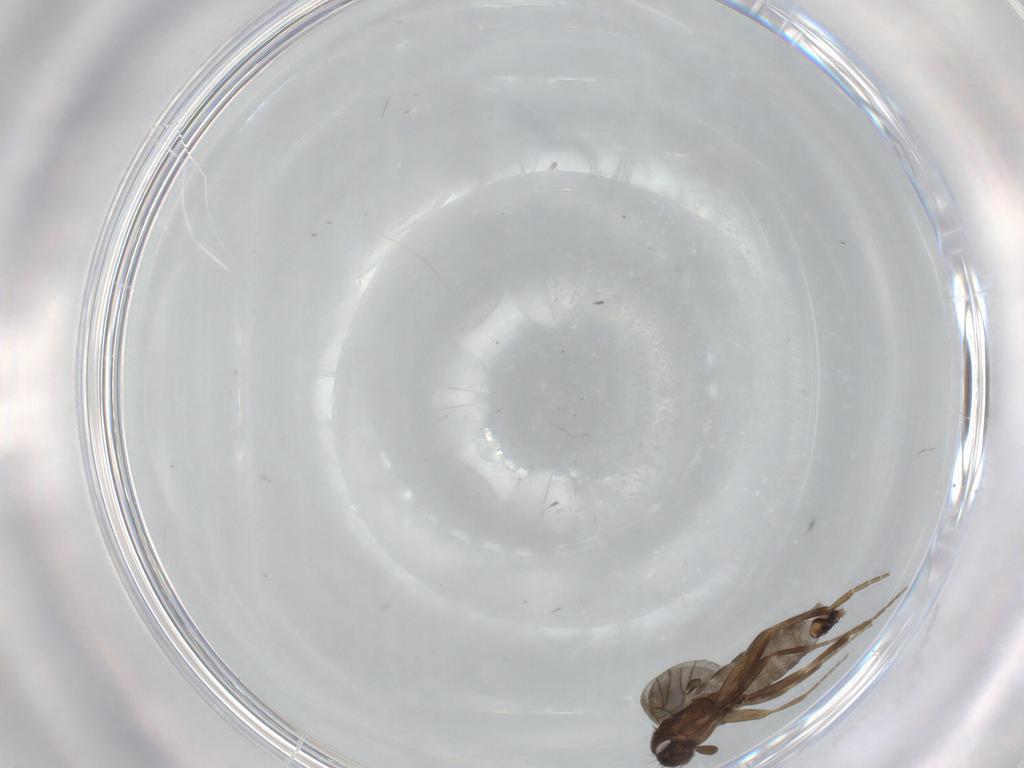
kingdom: Animalia
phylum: Arthropoda
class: Insecta
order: Diptera
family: Phoridae
